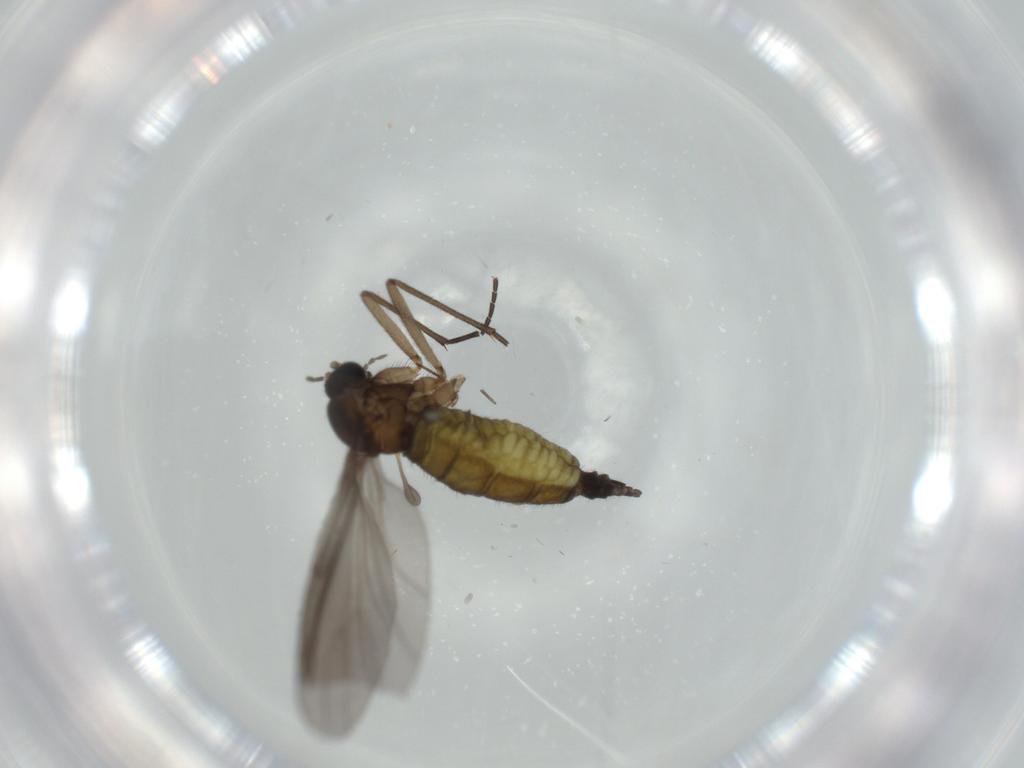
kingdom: Animalia
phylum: Arthropoda
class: Insecta
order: Diptera
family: Sciaridae
